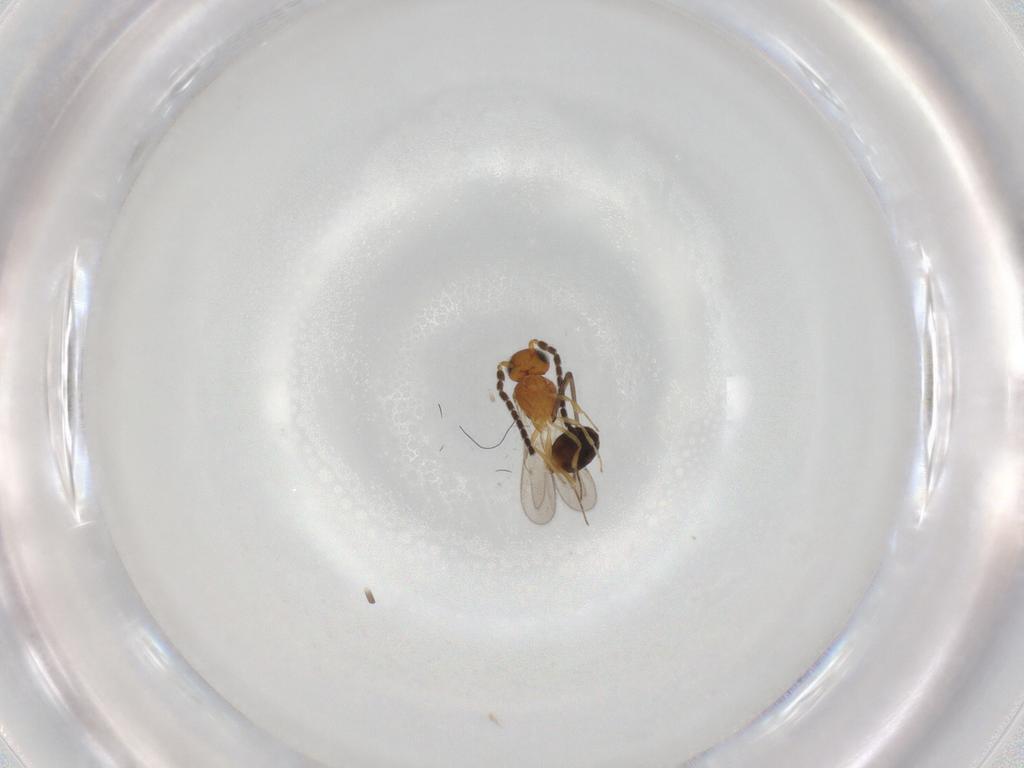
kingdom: Animalia
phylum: Arthropoda
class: Insecta
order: Hymenoptera
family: Scelionidae
